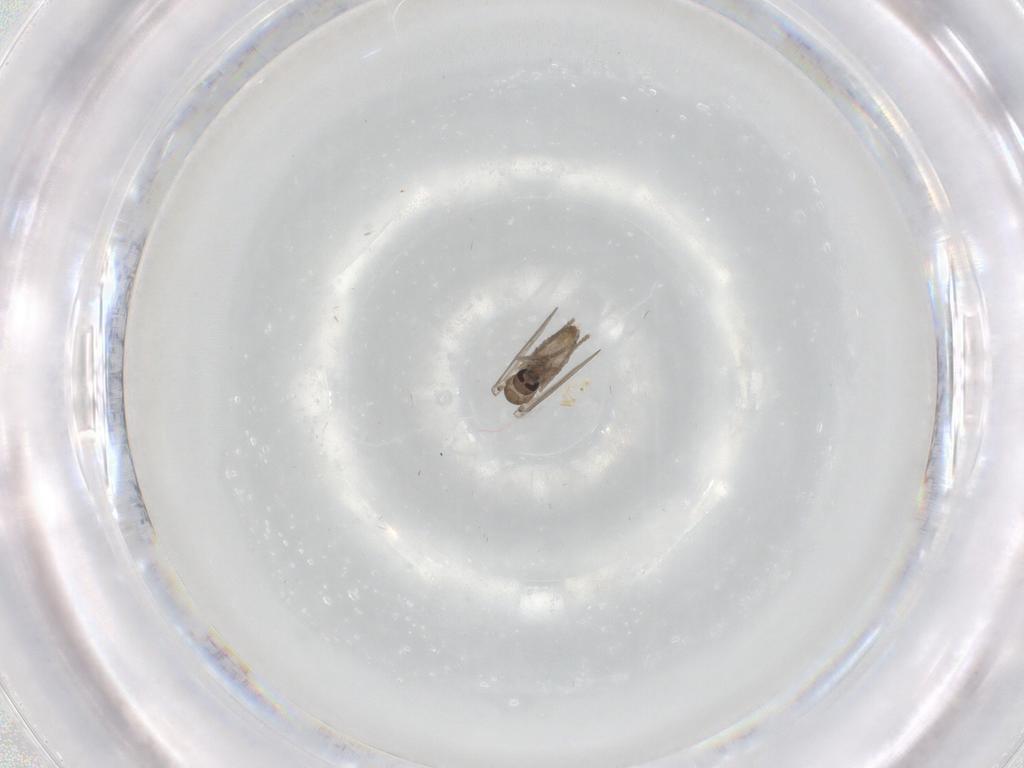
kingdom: Animalia
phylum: Arthropoda
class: Insecta
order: Diptera
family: Psychodidae
